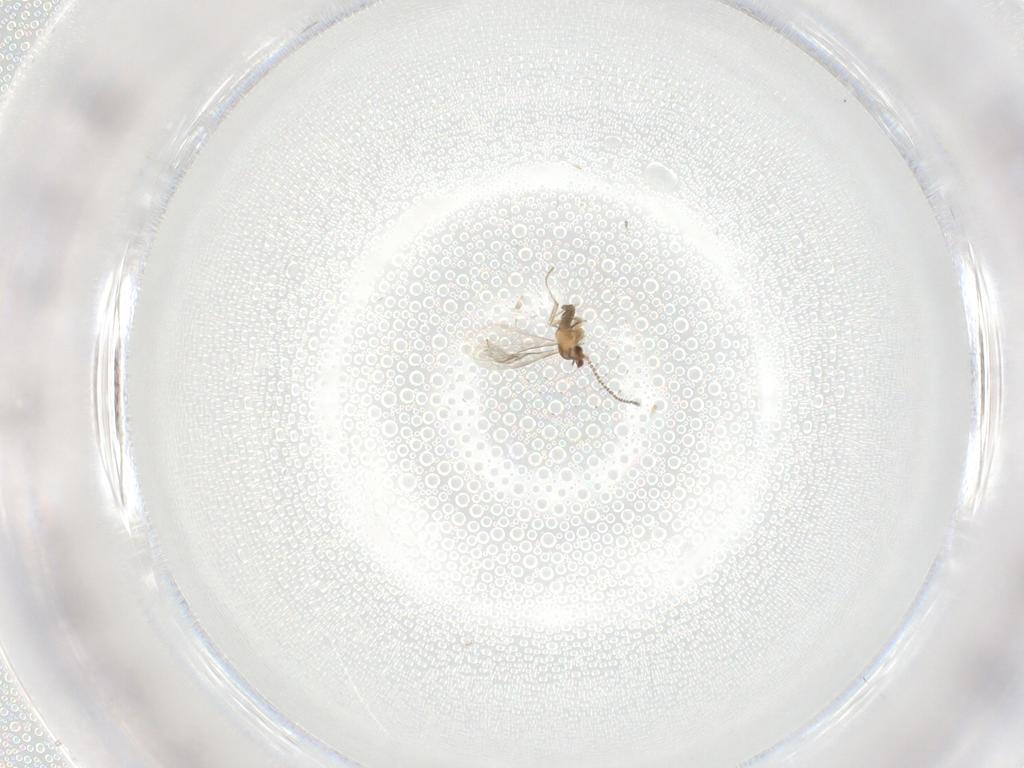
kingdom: Animalia
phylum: Arthropoda
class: Insecta
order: Diptera
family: Cecidomyiidae
